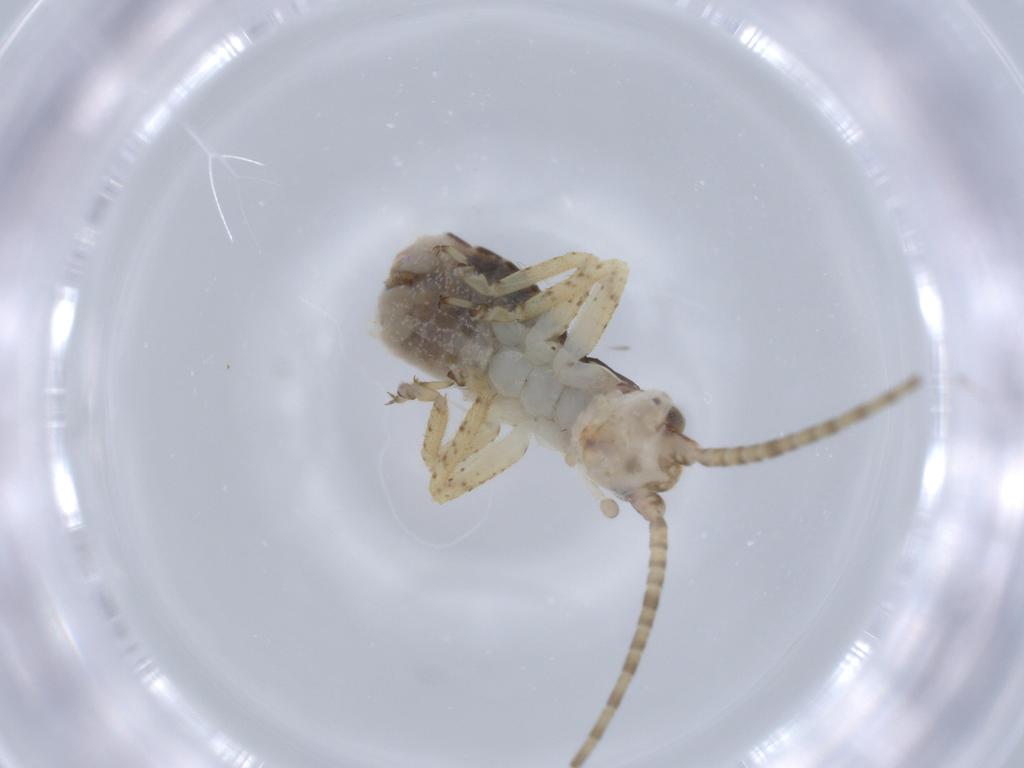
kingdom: Animalia
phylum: Arthropoda
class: Insecta
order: Orthoptera
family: Gryllidae
